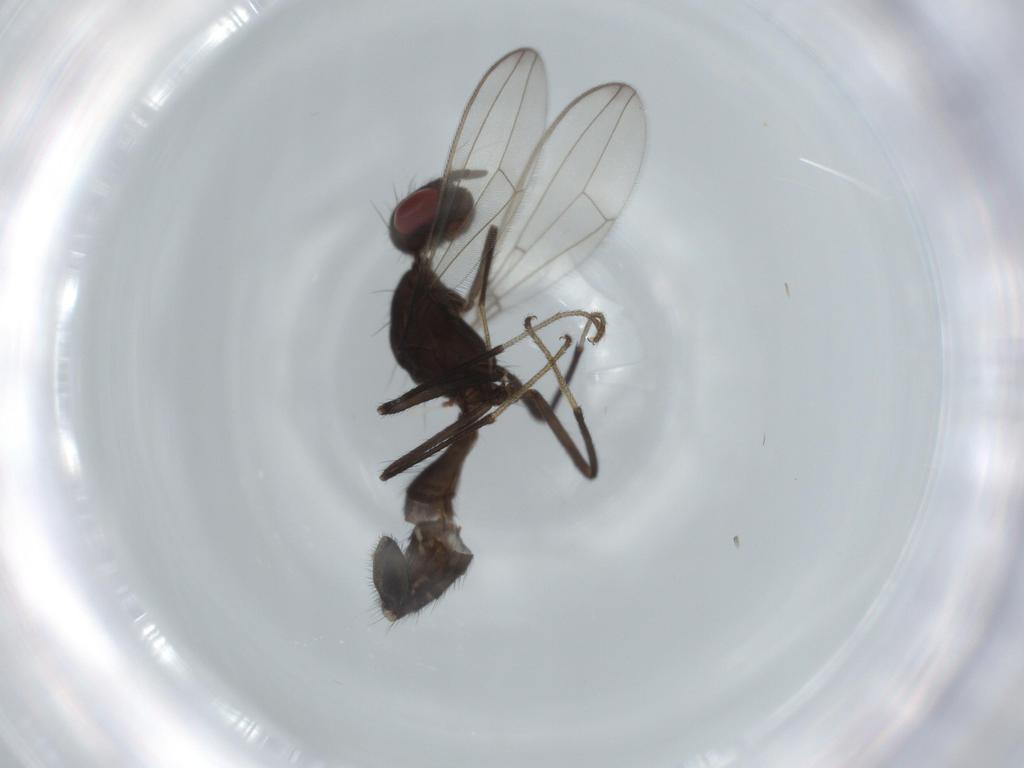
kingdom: Animalia
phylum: Arthropoda
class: Insecta
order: Diptera
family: Richardiidae
